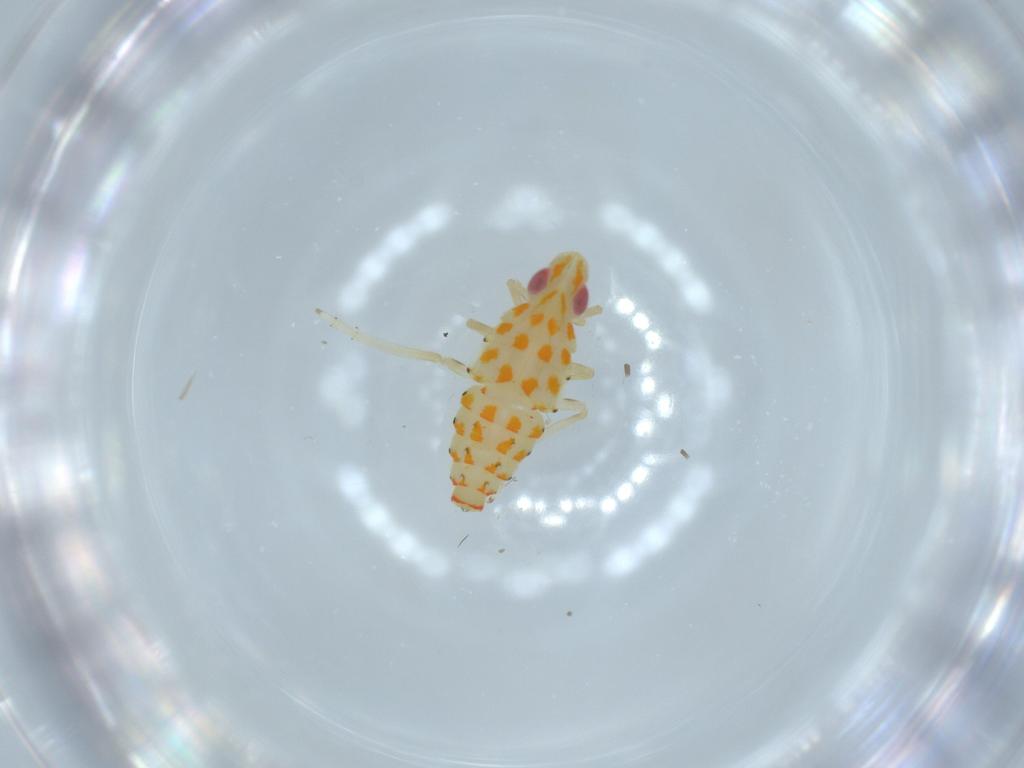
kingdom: Animalia
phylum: Arthropoda
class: Insecta
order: Hemiptera
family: Tropiduchidae
